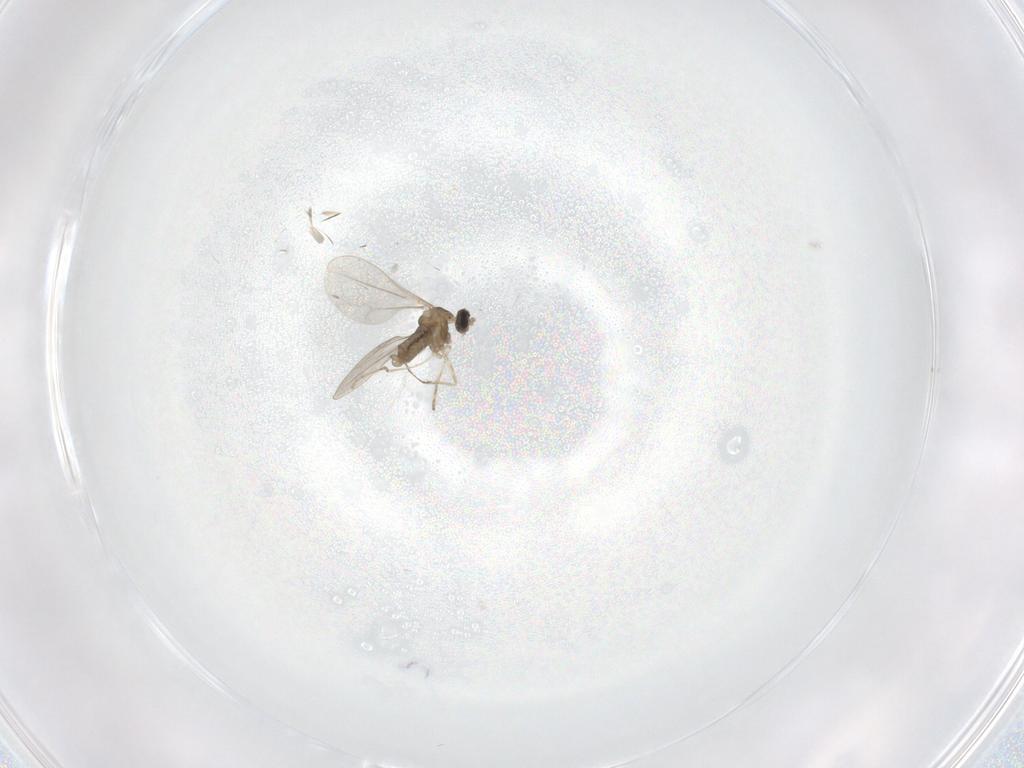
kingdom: Animalia
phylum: Arthropoda
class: Insecta
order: Diptera
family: Cecidomyiidae
